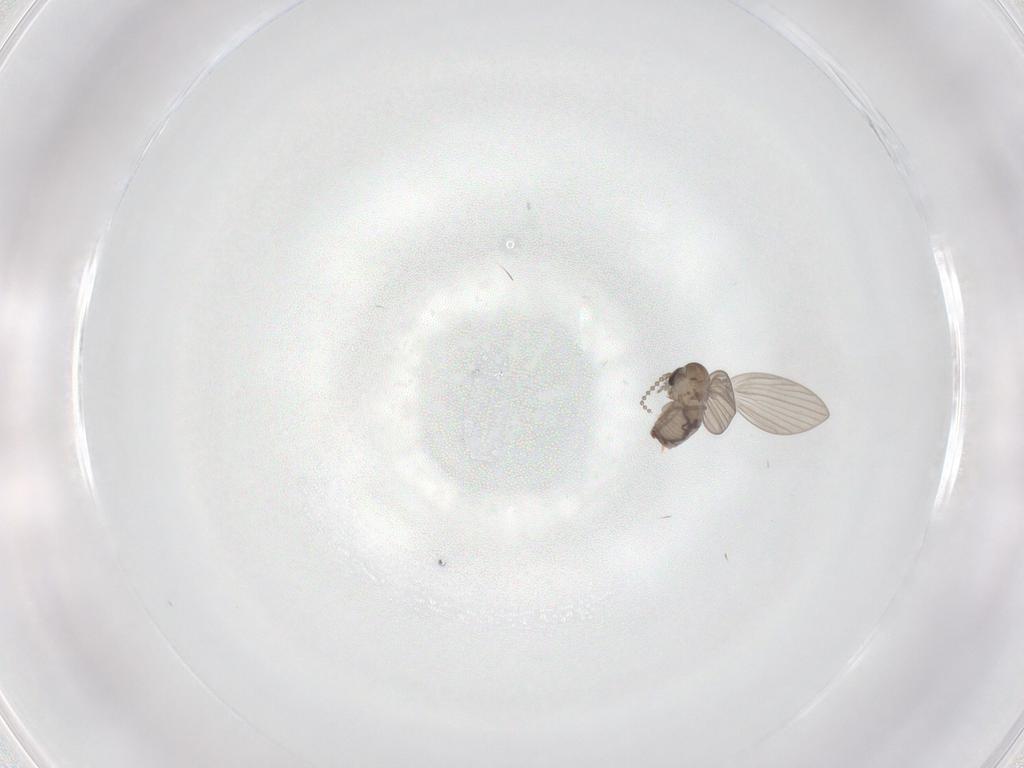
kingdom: Animalia
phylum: Arthropoda
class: Insecta
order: Diptera
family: Psychodidae
